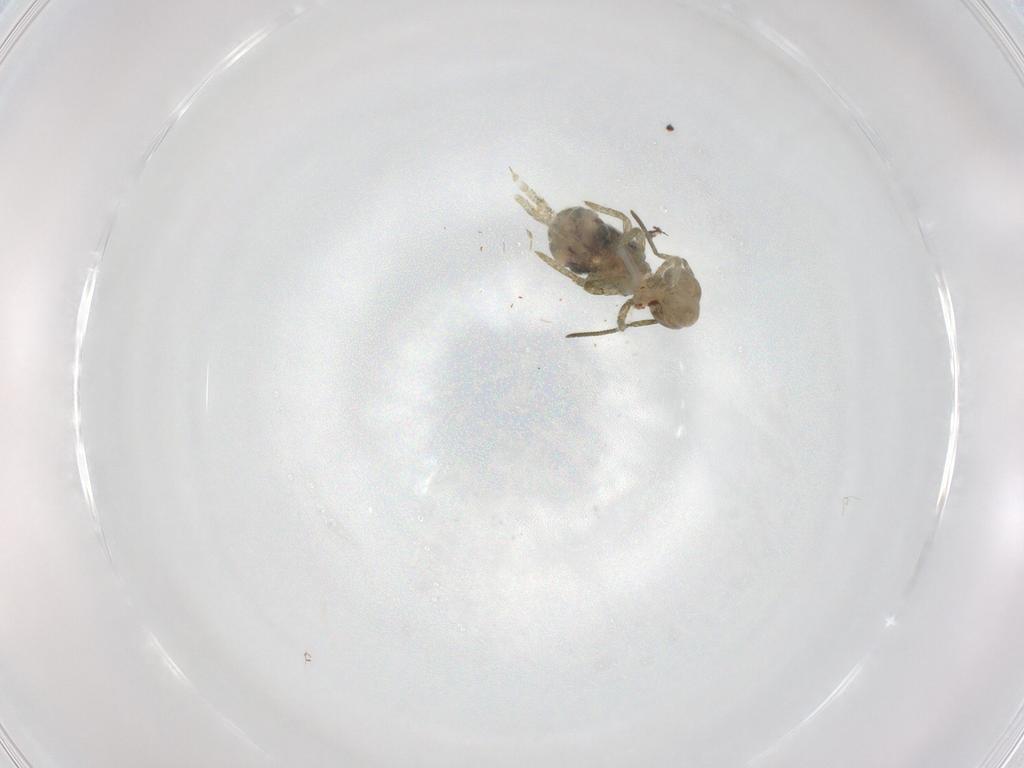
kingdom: Animalia
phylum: Arthropoda
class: Collembola
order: Symphypleona
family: Sminthuridae
